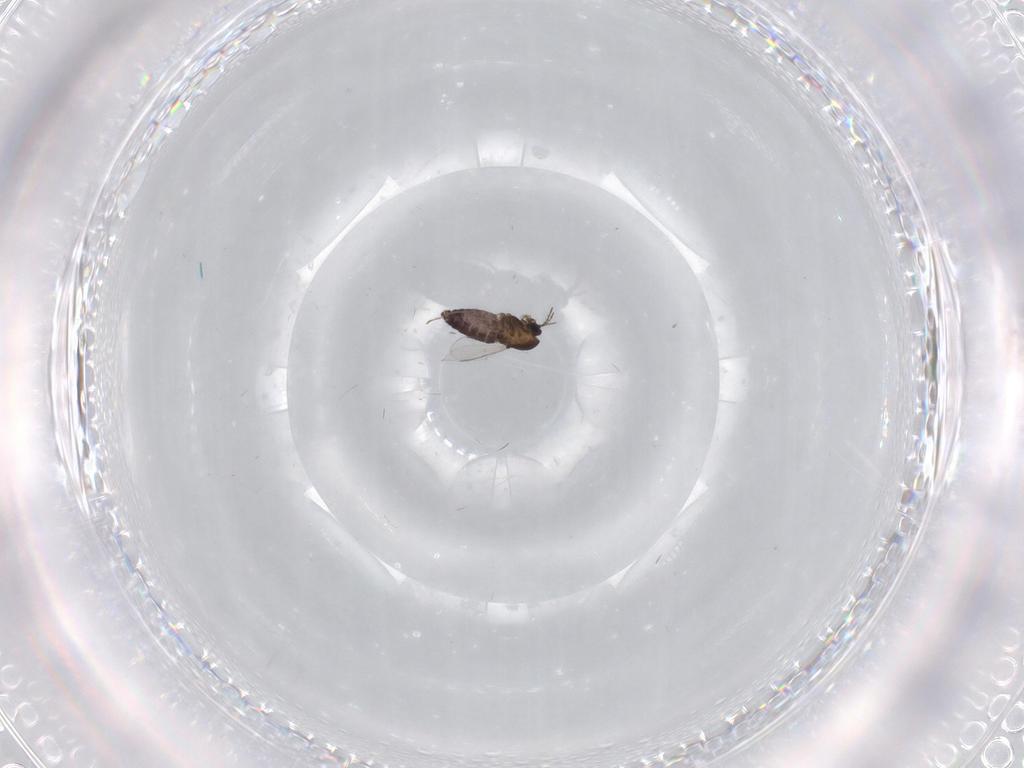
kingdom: Animalia
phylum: Arthropoda
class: Insecta
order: Diptera
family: Chironomidae
